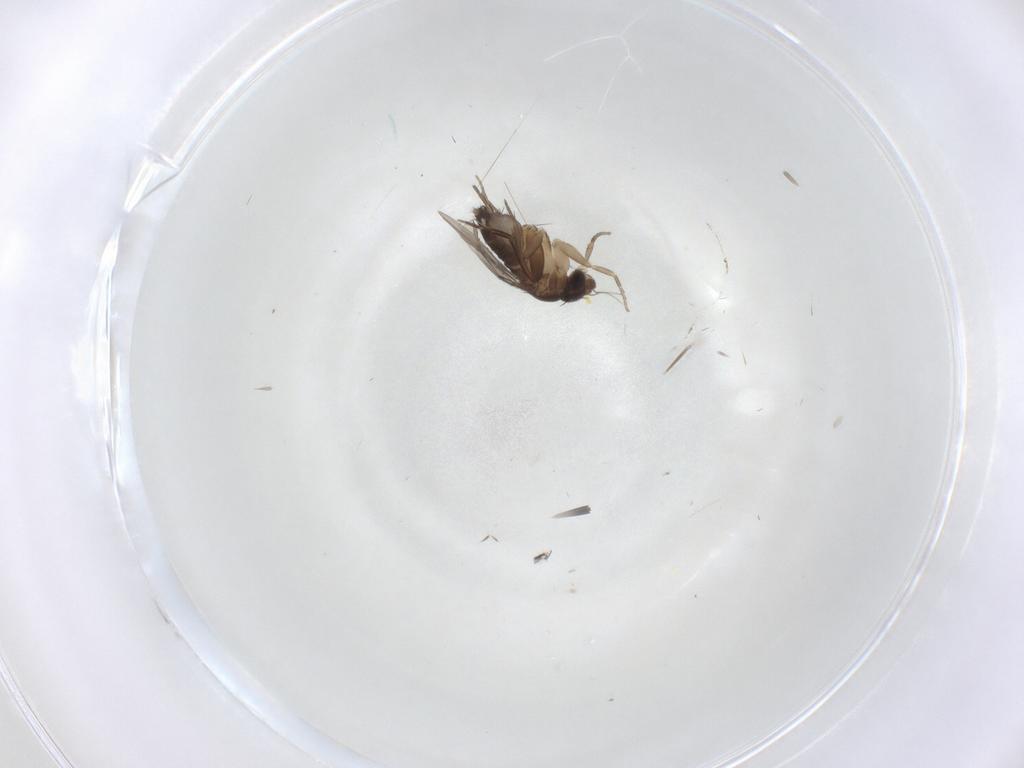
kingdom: Animalia
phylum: Arthropoda
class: Insecta
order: Diptera
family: Phoridae
